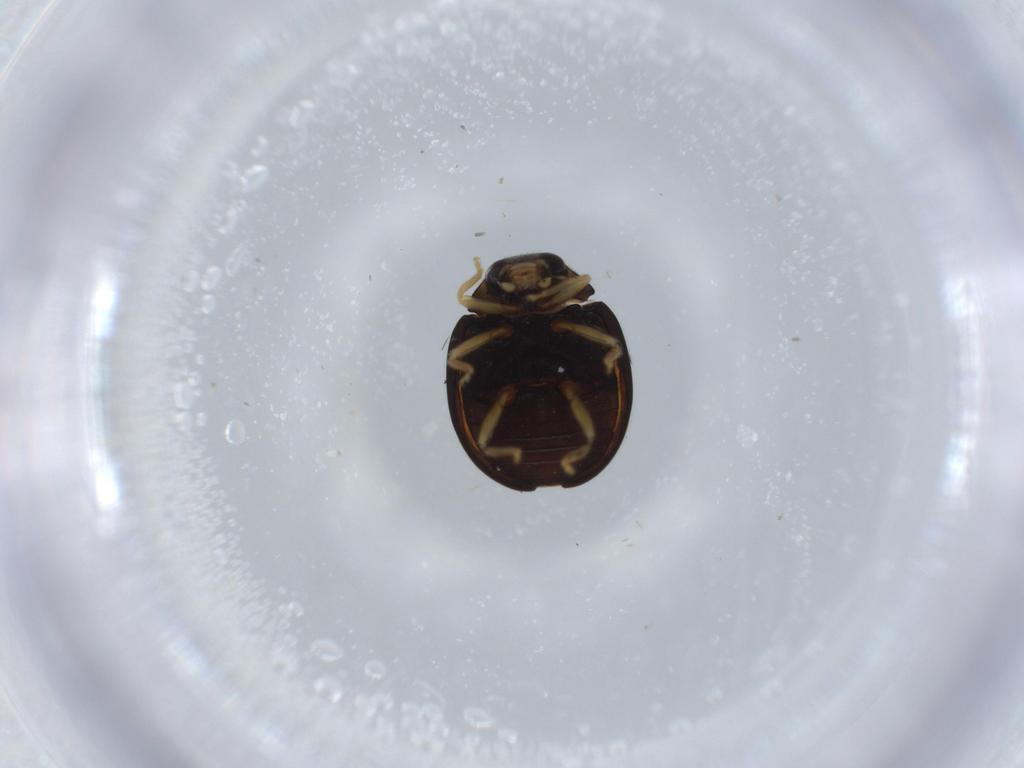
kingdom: Animalia
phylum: Arthropoda
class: Insecta
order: Coleoptera
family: Coccinellidae
